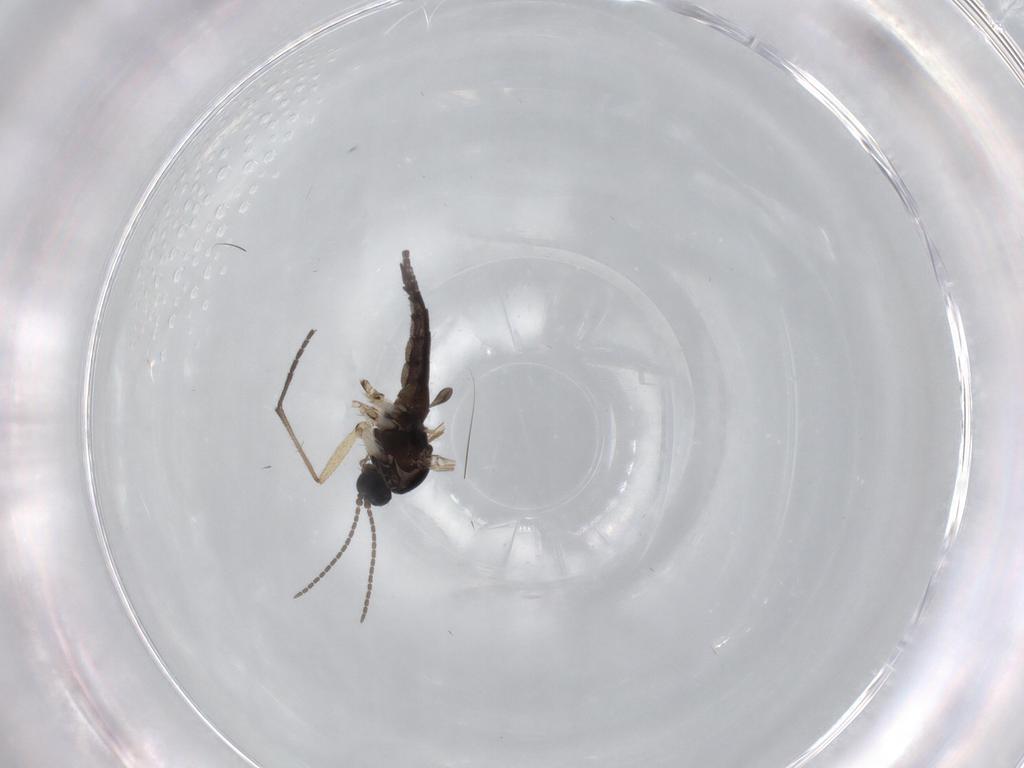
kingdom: Animalia
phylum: Arthropoda
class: Insecta
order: Diptera
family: Sciaridae
